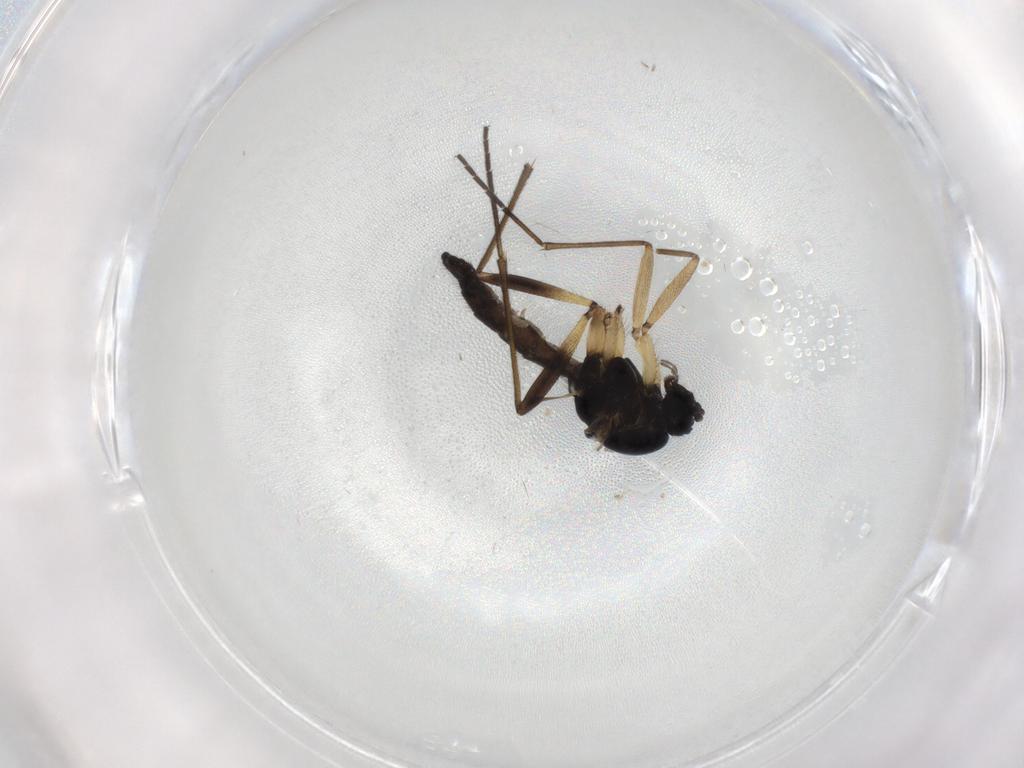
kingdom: Animalia
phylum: Arthropoda
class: Insecta
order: Diptera
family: Sciaridae
